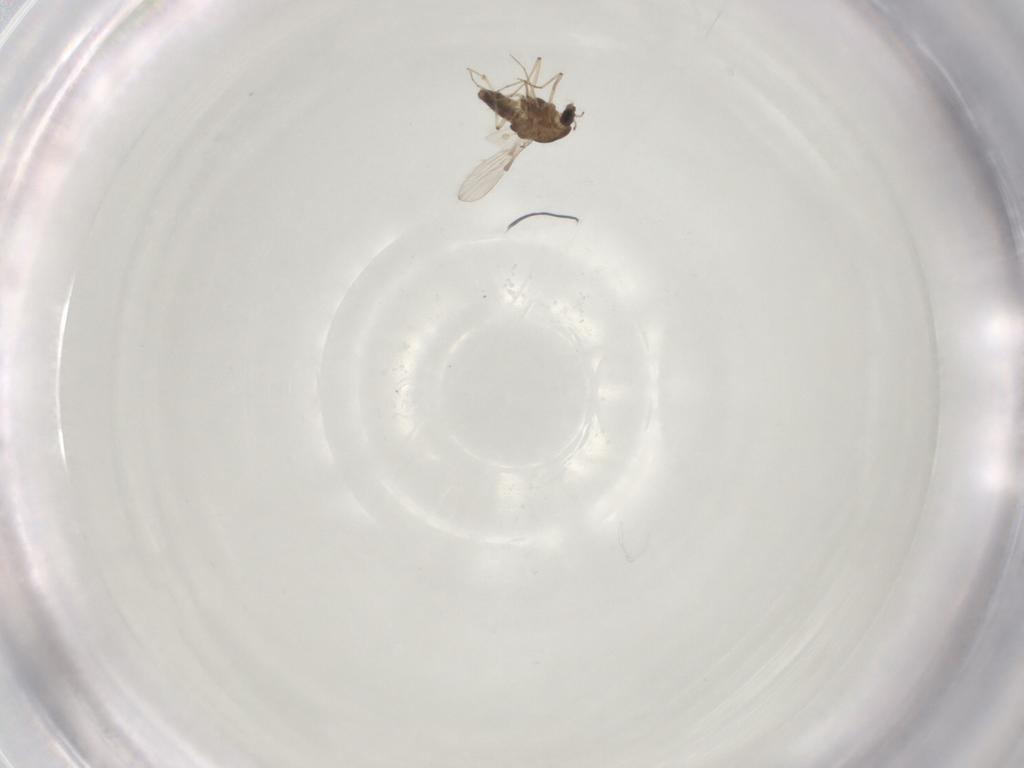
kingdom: Animalia
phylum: Arthropoda
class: Insecta
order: Diptera
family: Chironomidae
